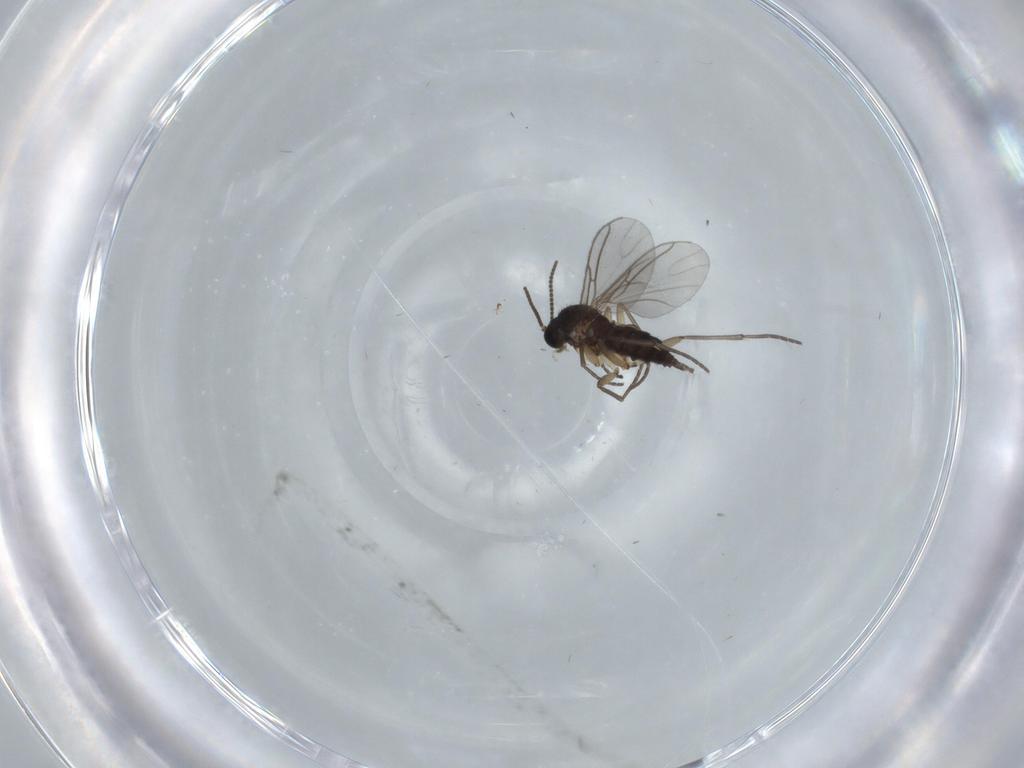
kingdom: Animalia
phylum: Arthropoda
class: Insecta
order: Diptera
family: Sciaridae
